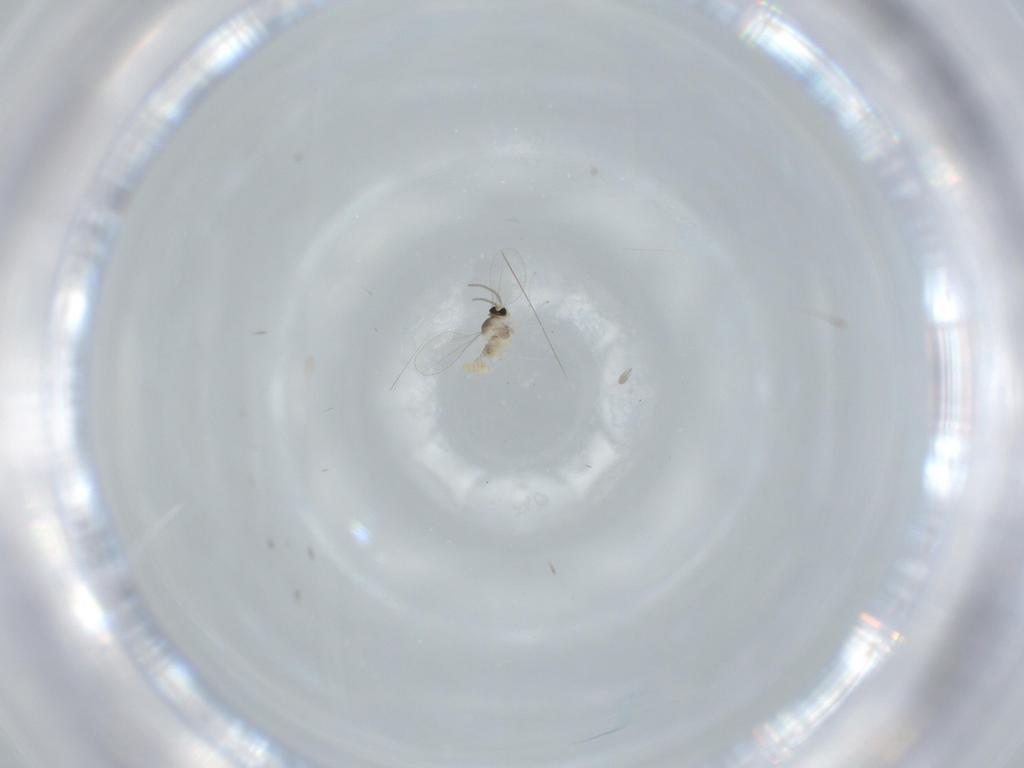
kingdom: Animalia
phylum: Arthropoda
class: Insecta
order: Diptera
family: Cecidomyiidae
